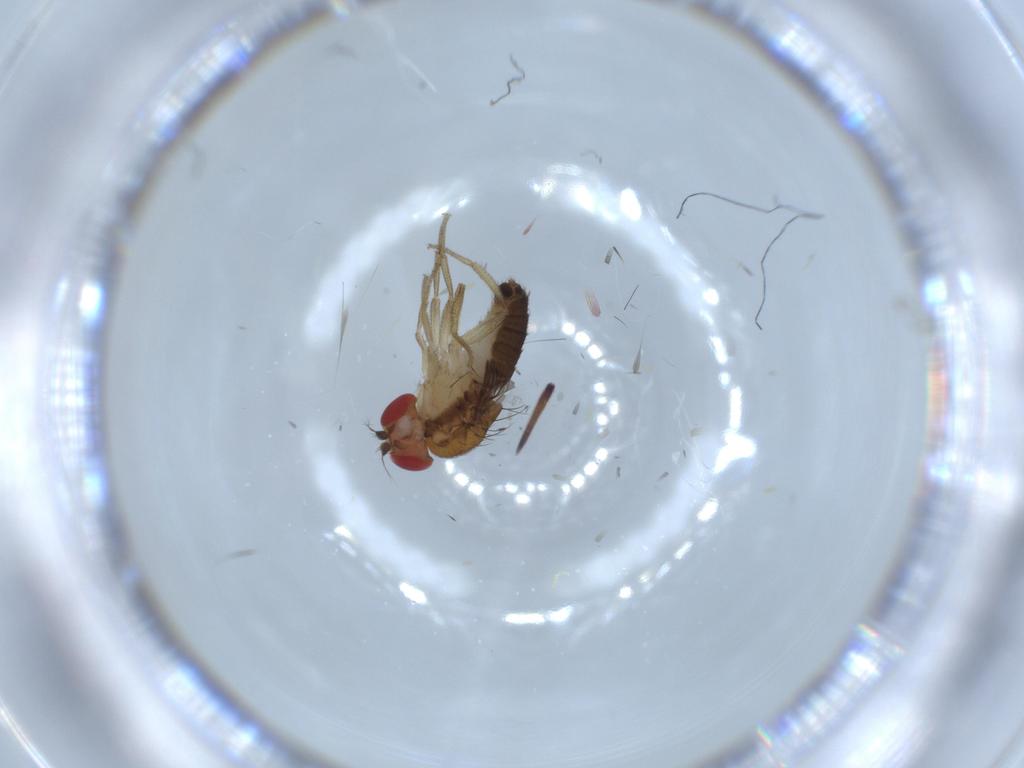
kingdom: Animalia
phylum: Arthropoda
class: Insecta
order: Diptera
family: Drosophilidae
